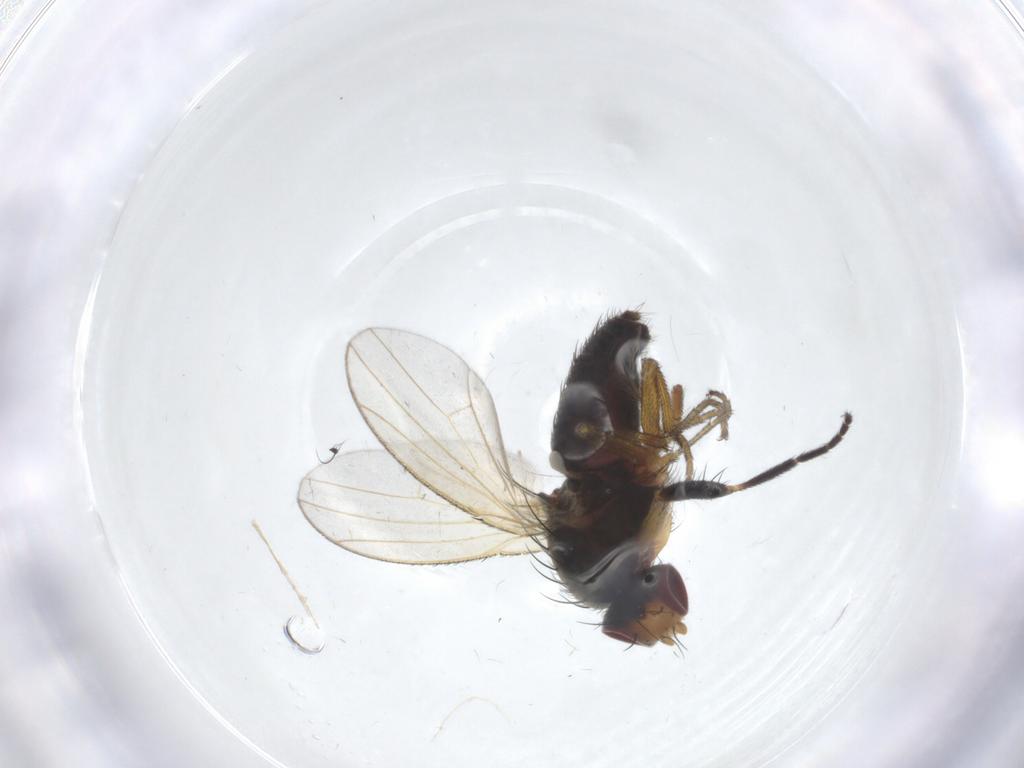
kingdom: Animalia
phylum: Arthropoda
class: Insecta
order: Diptera
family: Heleomyzidae
